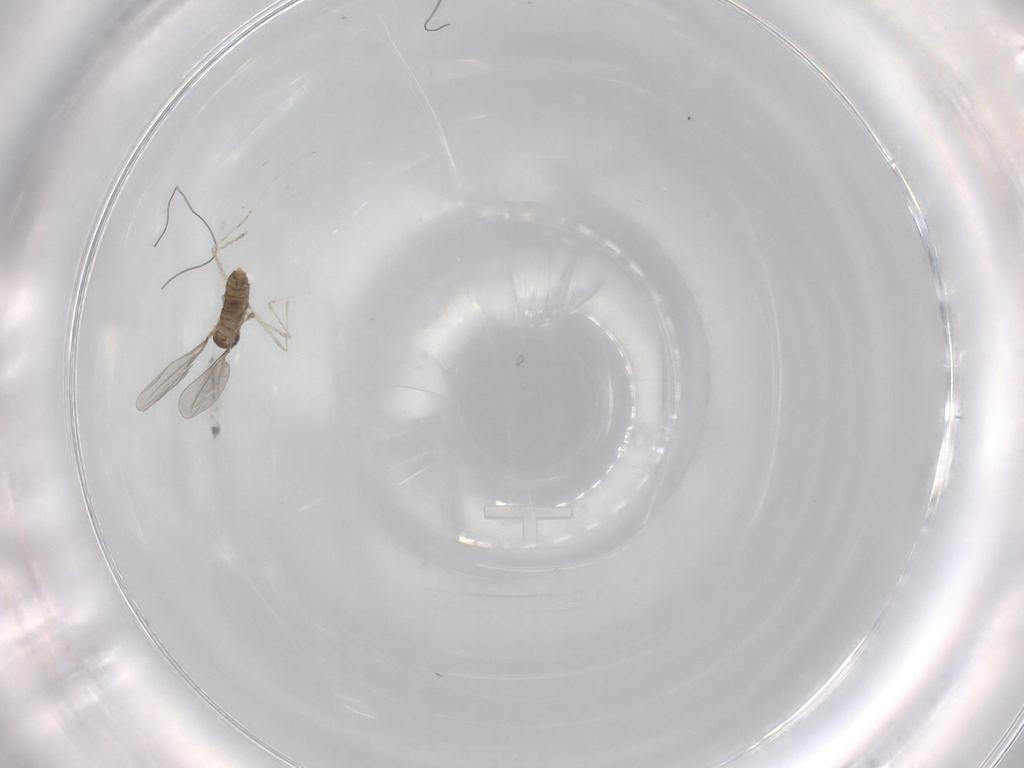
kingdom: Animalia
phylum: Arthropoda
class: Insecta
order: Diptera
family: Cecidomyiidae
